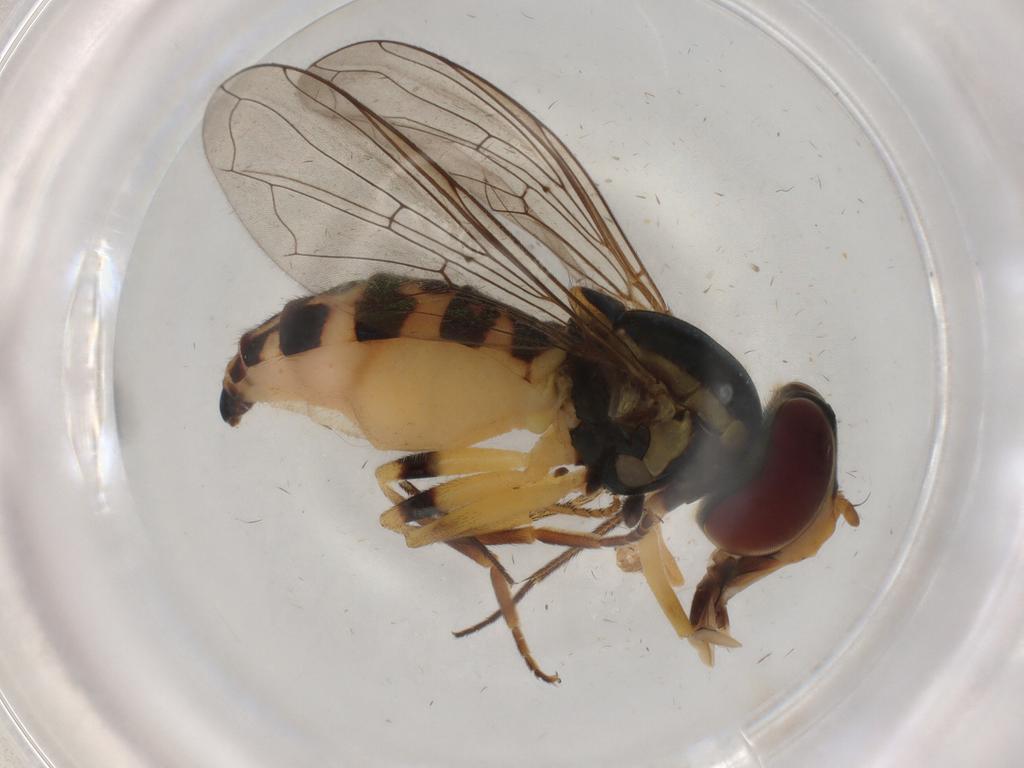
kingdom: Animalia
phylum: Arthropoda
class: Insecta
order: Diptera
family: Syrphidae
